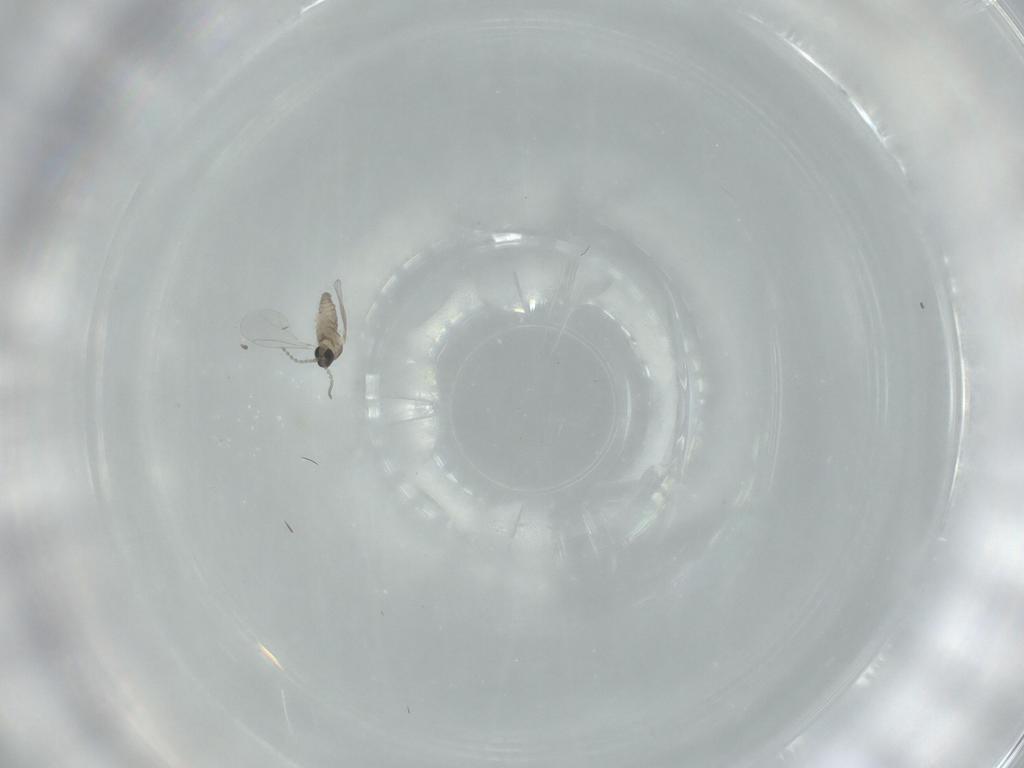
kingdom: Animalia
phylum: Arthropoda
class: Insecta
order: Diptera
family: Cecidomyiidae
